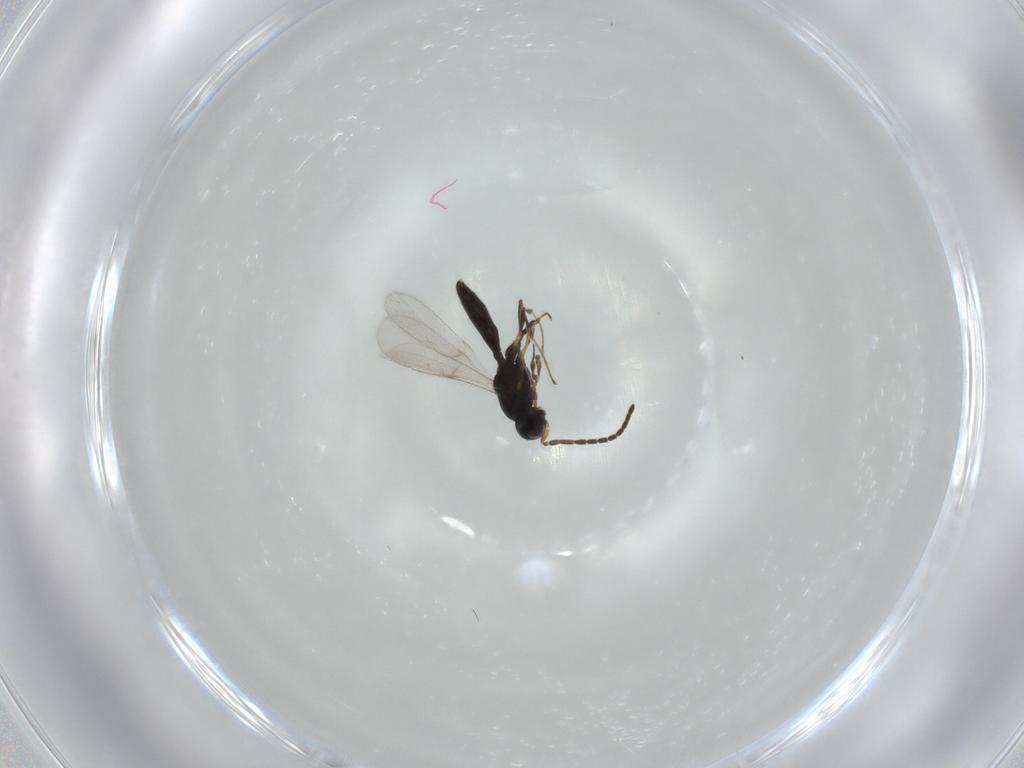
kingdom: Animalia
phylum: Arthropoda
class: Insecta
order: Hymenoptera
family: Scelionidae
